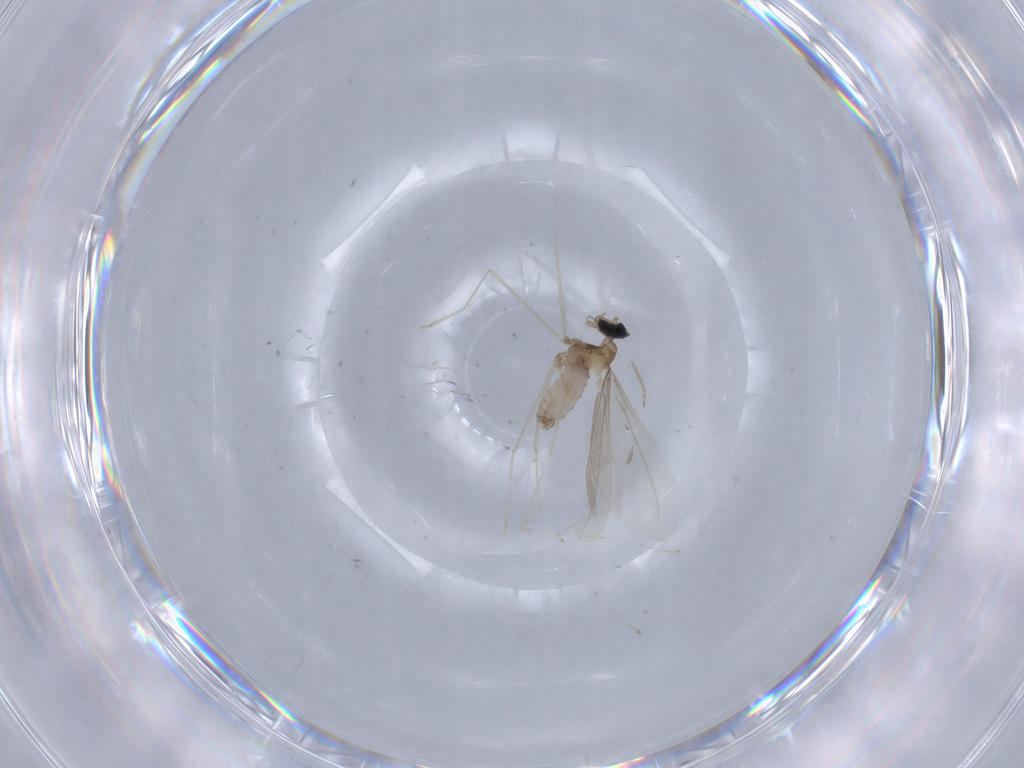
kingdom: Animalia
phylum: Arthropoda
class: Insecta
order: Diptera
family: Cecidomyiidae
